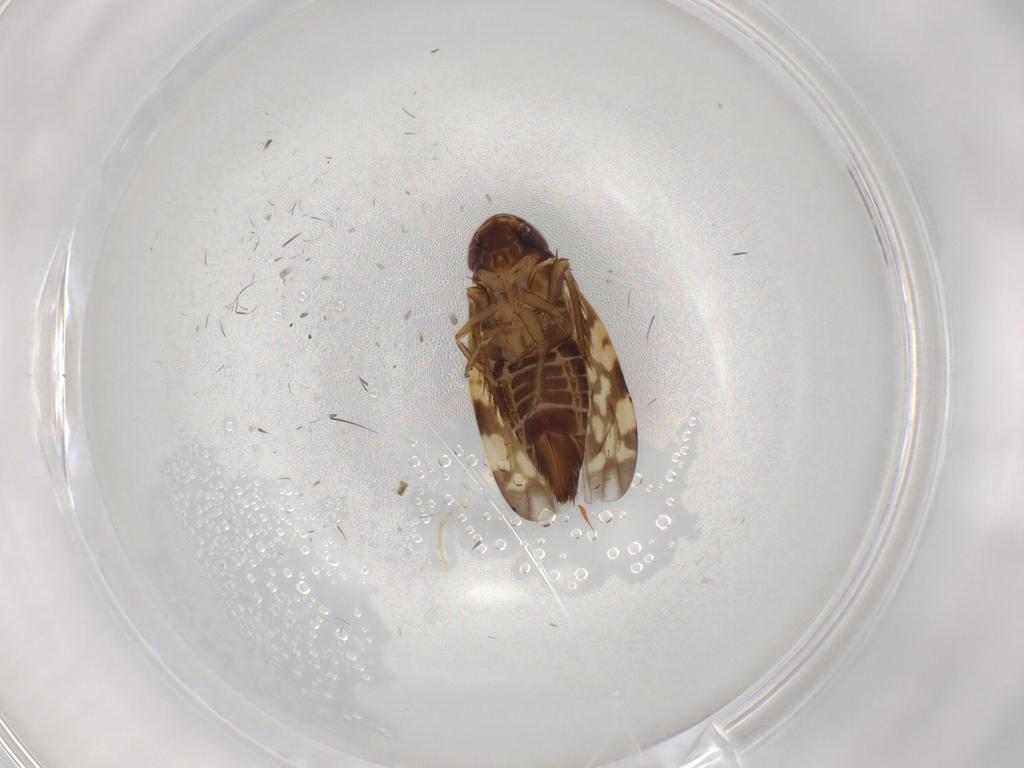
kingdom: Animalia
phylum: Arthropoda
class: Insecta
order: Hemiptera
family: Cicadellidae
